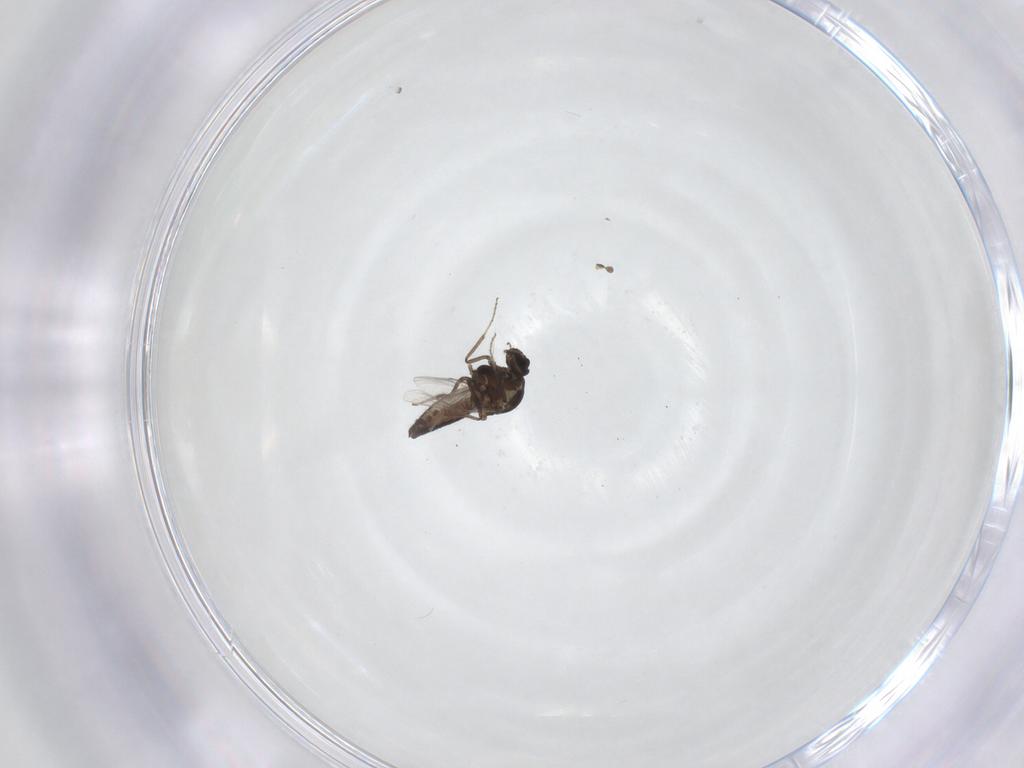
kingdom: Animalia
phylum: Arthropoda
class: Insecta
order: Diptera
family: Ceratopogonidae
